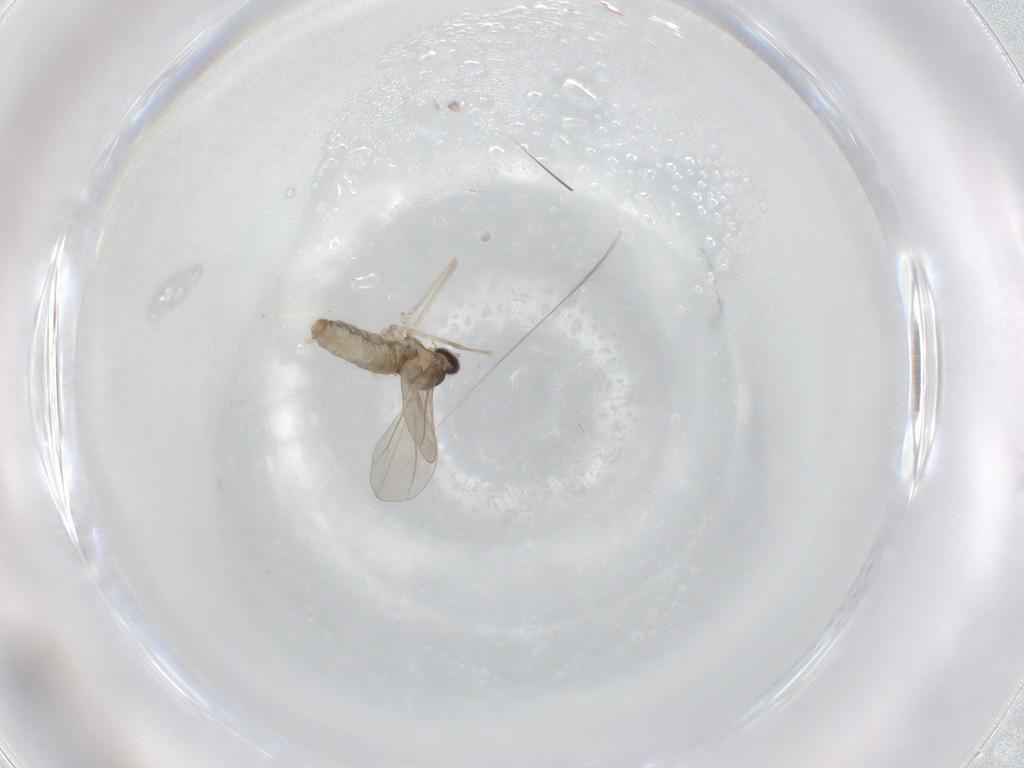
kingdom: Animalia
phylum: Arthropoda
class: Insecta
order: Diptera
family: Cecidomyiidae
